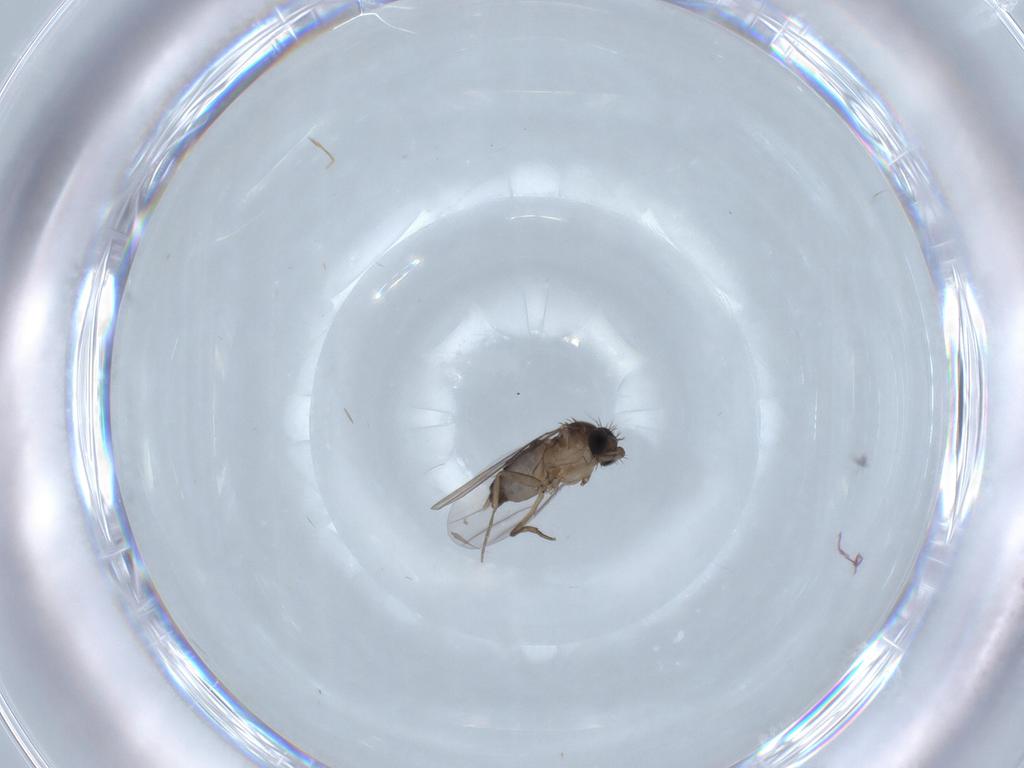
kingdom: Animalia
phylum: Arthropoda
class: Insecta
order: Diptera
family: Phoridae
